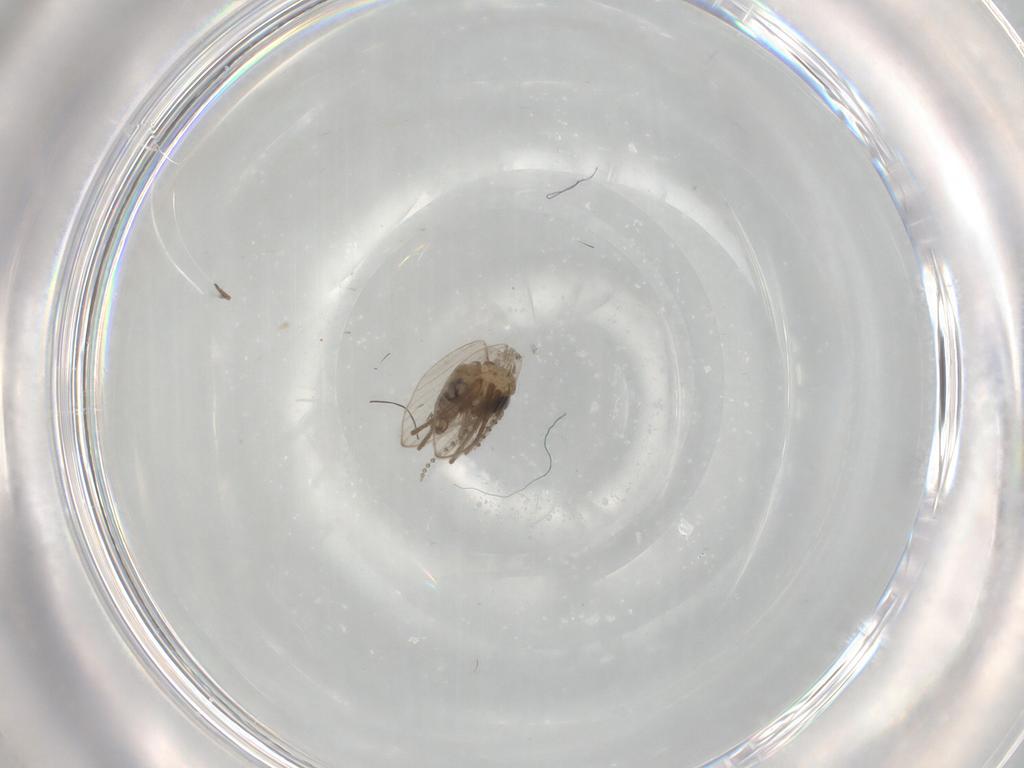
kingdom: Animalia
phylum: Arthropoda
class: Insecta
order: Diptera
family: Psychodidae
